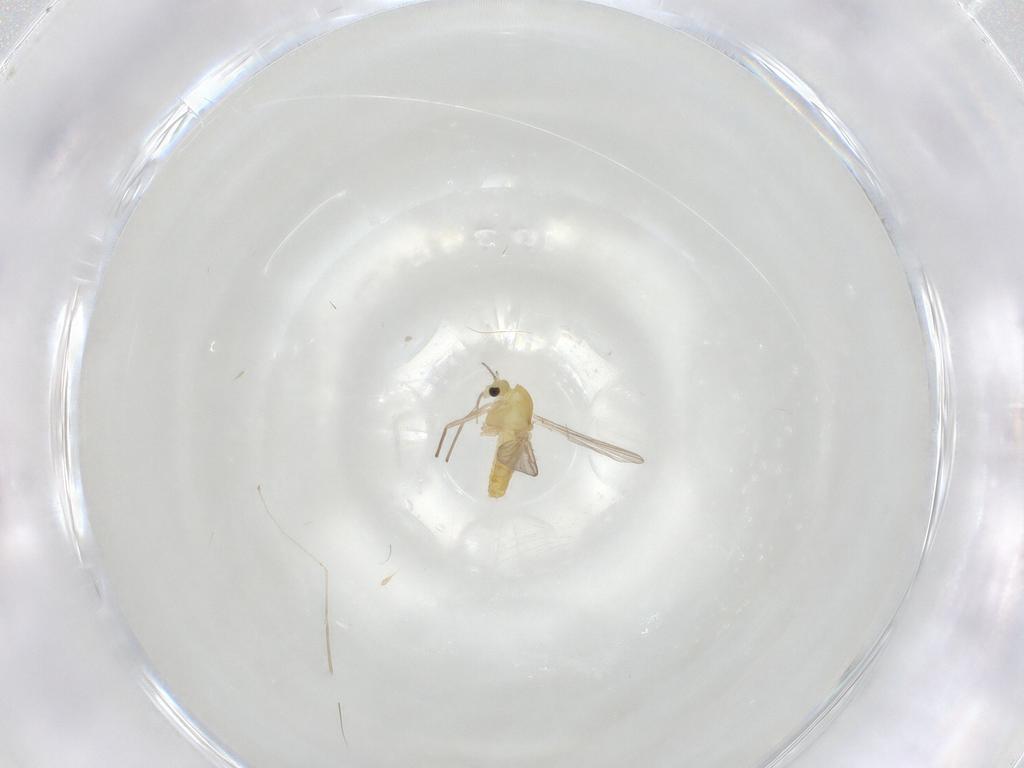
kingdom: Animalia
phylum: Arthropoda
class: Insecta
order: Diptera
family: Chironomidae
